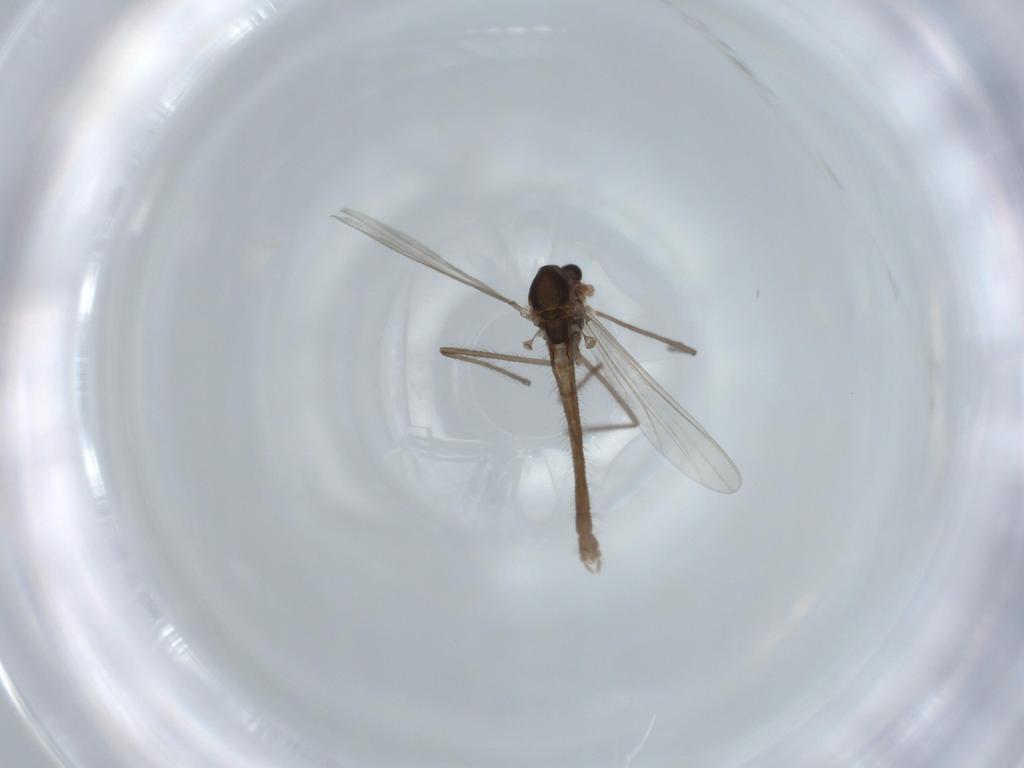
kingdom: Animalia
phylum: Arthropoda
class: Insecta
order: Diptera
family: Chironomidae
